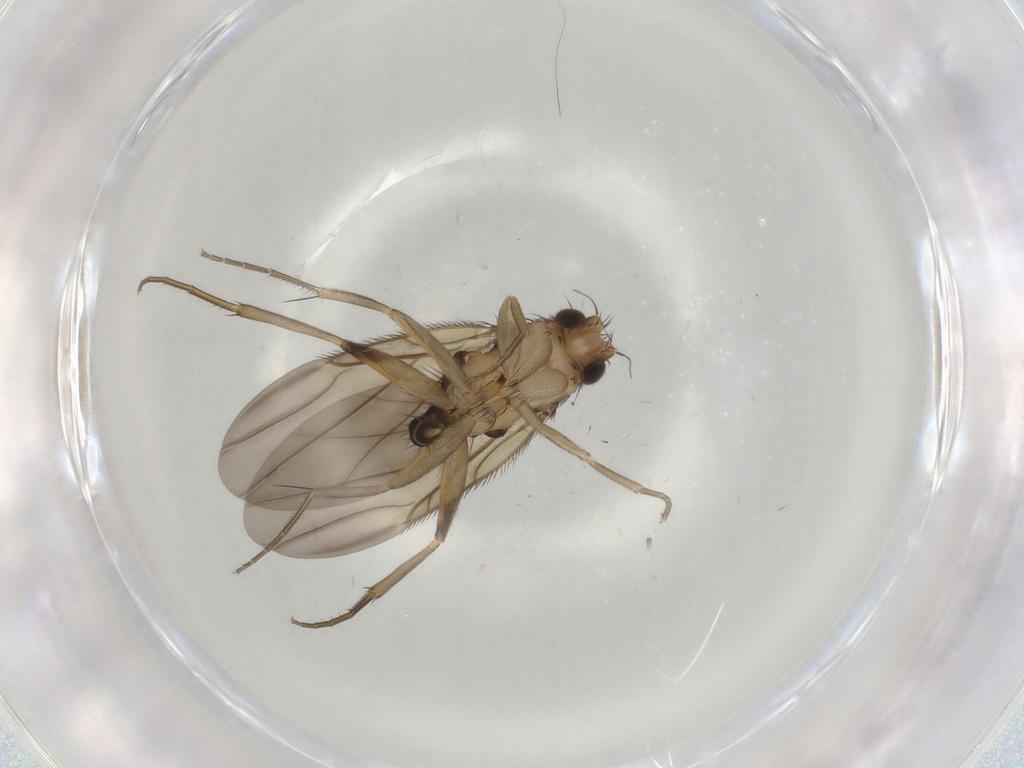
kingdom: Animalia
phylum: Arthropoda
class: Insecta
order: Diptera
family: Phoridae
